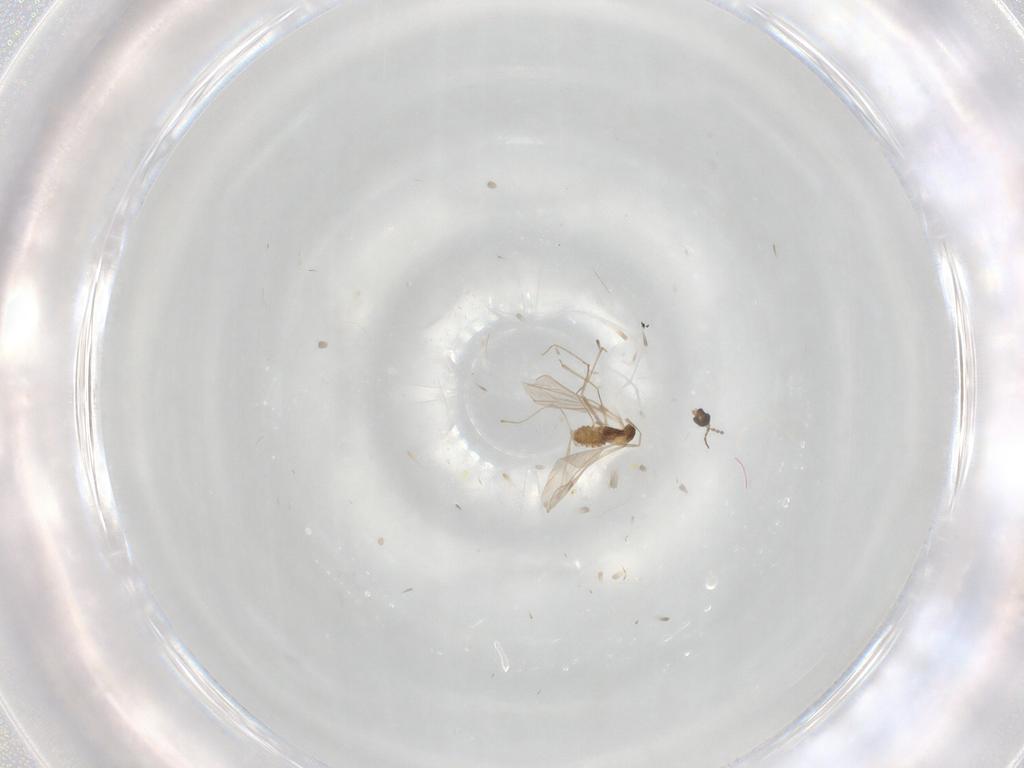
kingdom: Animalia
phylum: Arthropoda
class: Insecta
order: Diptera
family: Cecidomyiidae
